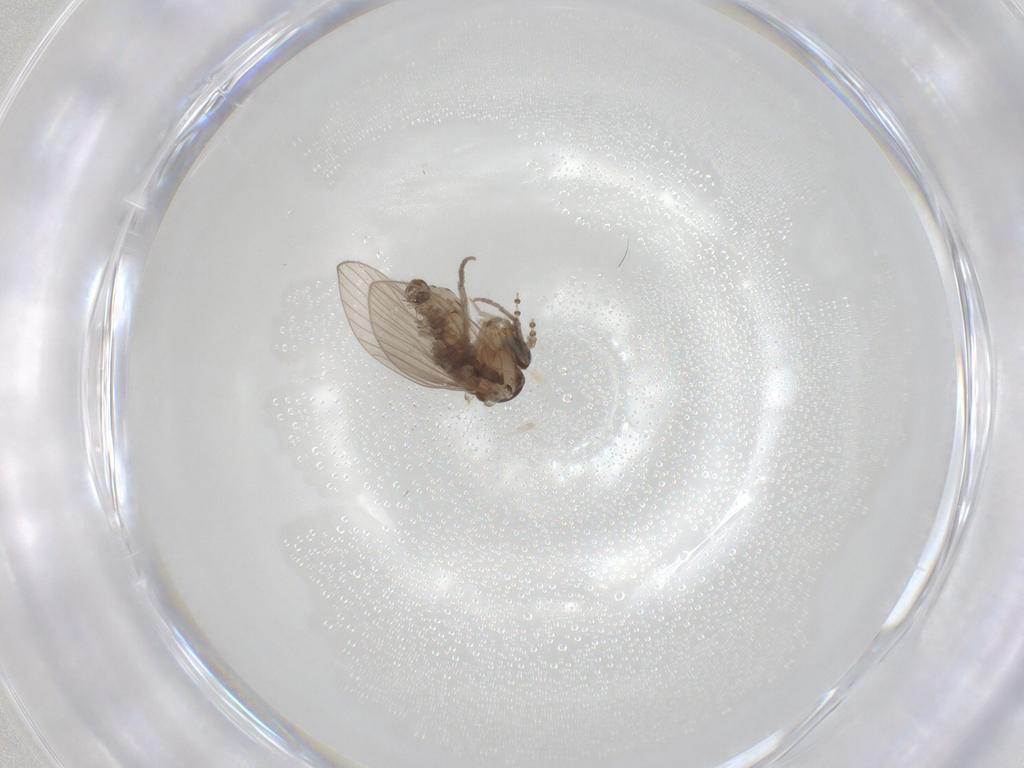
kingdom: Animalia
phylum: Arthropoda
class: Insecta
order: Diptera
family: Psychodidae
